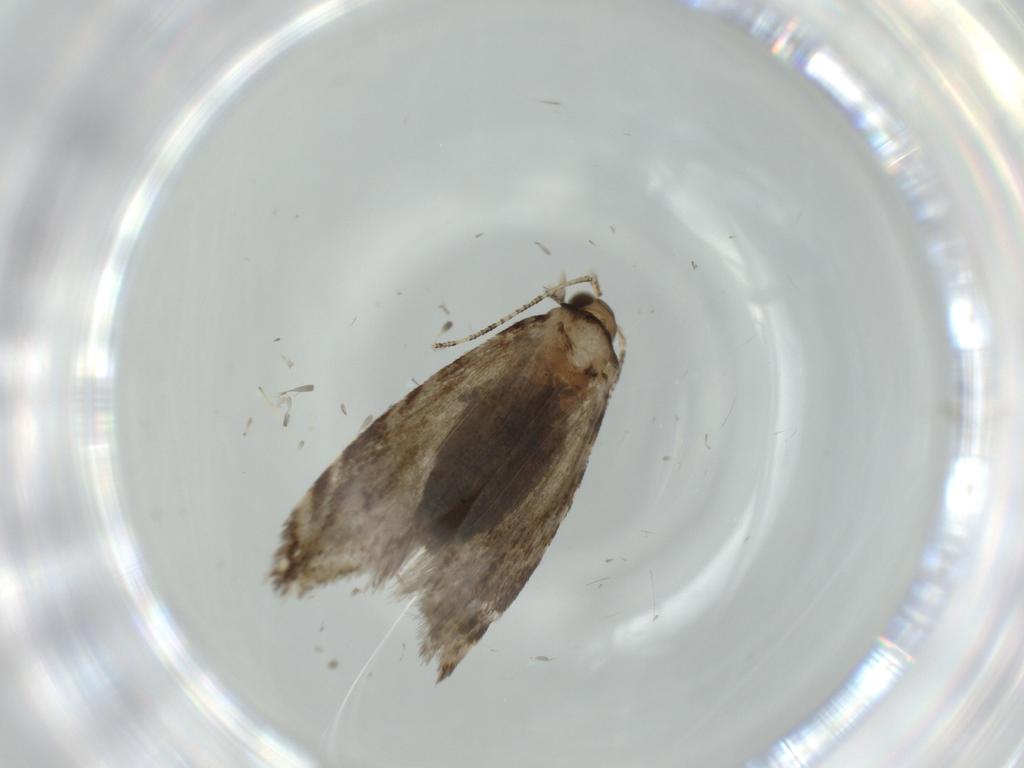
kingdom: Animalia
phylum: Arthropoda
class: Insecta
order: Lepidoptera
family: Tineidae
